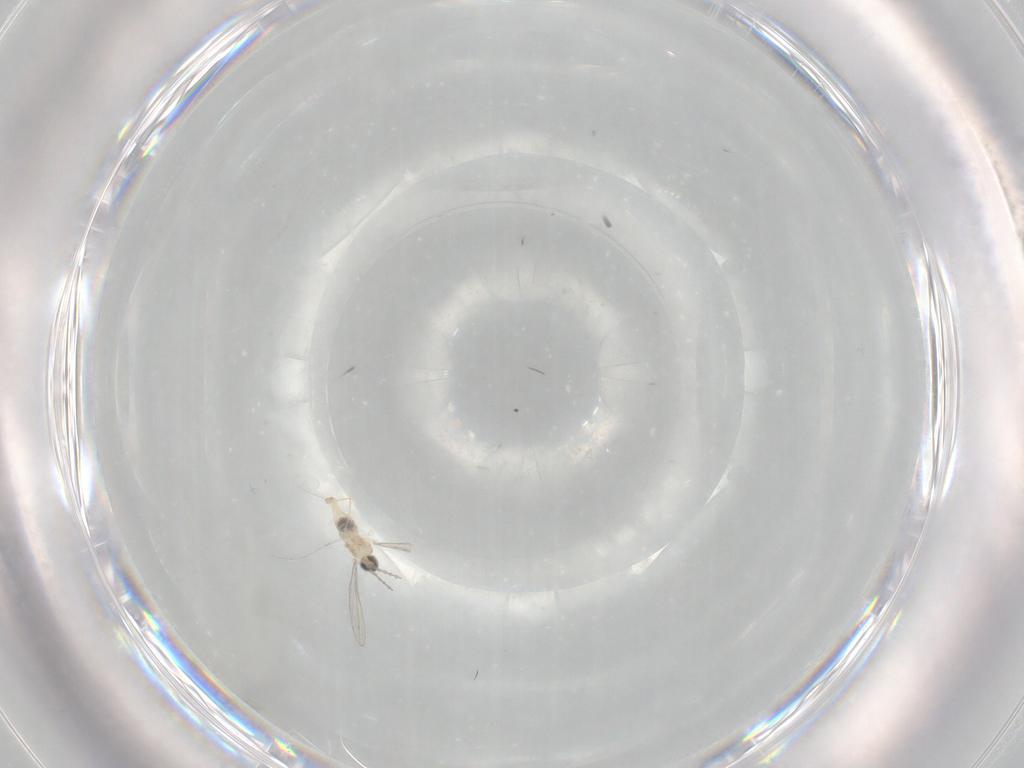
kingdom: Animalia
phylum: Arthropoda
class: Insecta
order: Diptera
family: Cecidomyiidae
